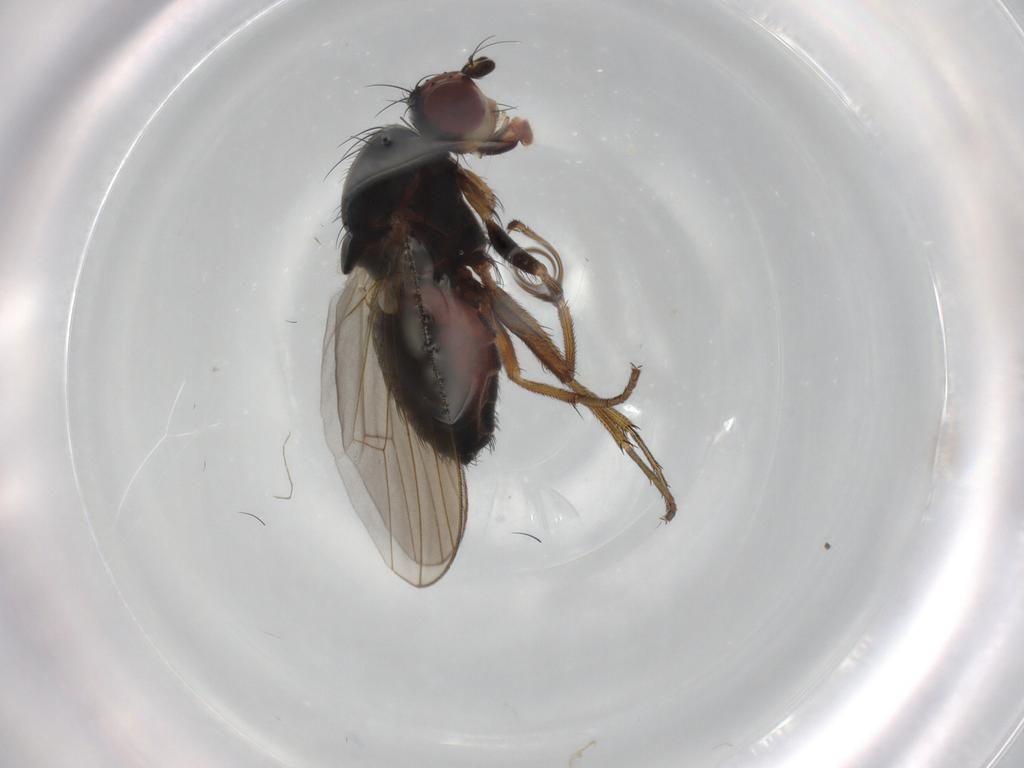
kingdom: Animalia
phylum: Arthropoda
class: Insecta
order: Diptera
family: Heleomyzidae
